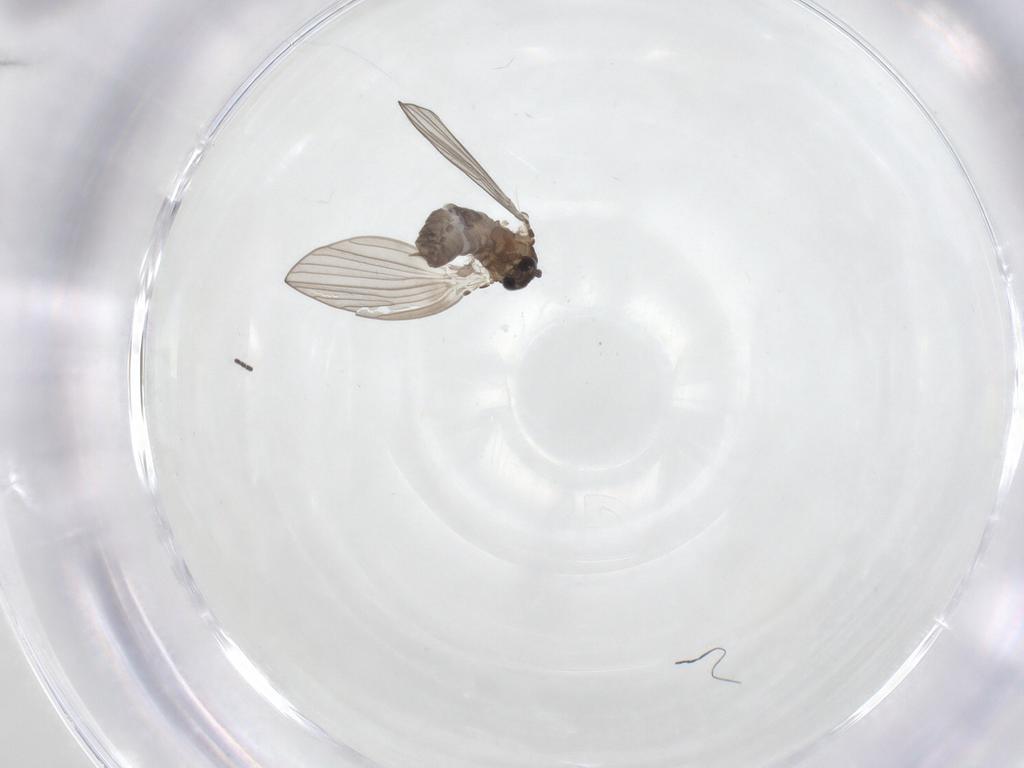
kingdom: Animalia
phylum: Arthropoda
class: Insecta
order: Diptera
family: Psychodidae
